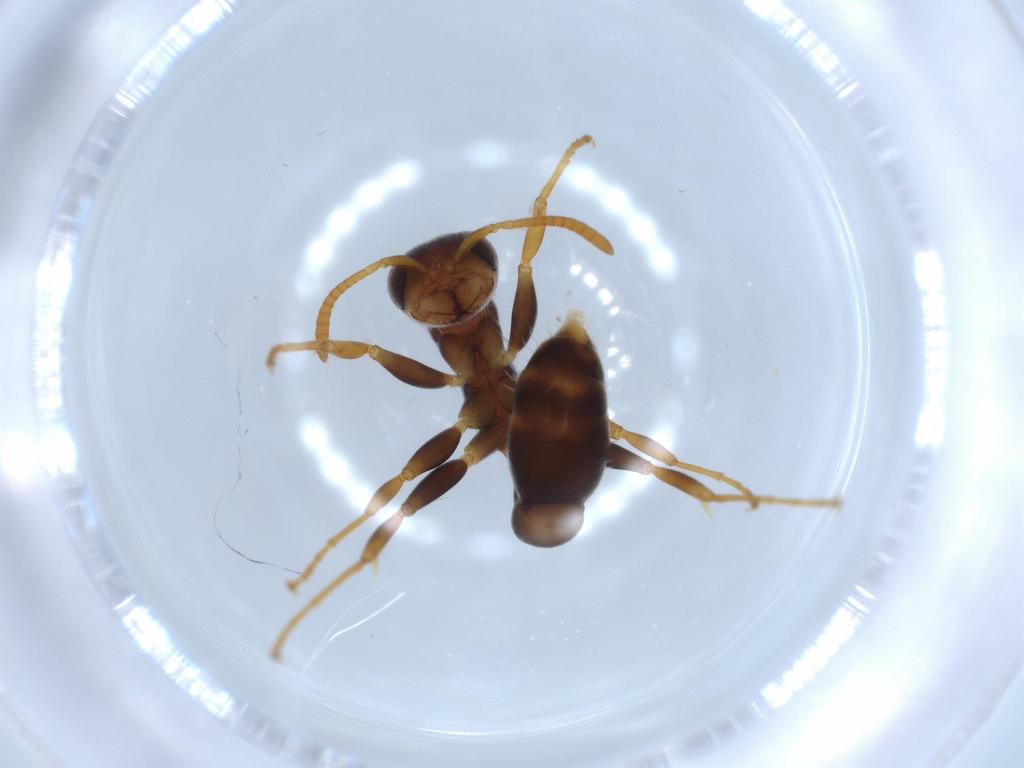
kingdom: Animalia
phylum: Arthropoda
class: Insecta
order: Hymenoptera
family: Formicidae
